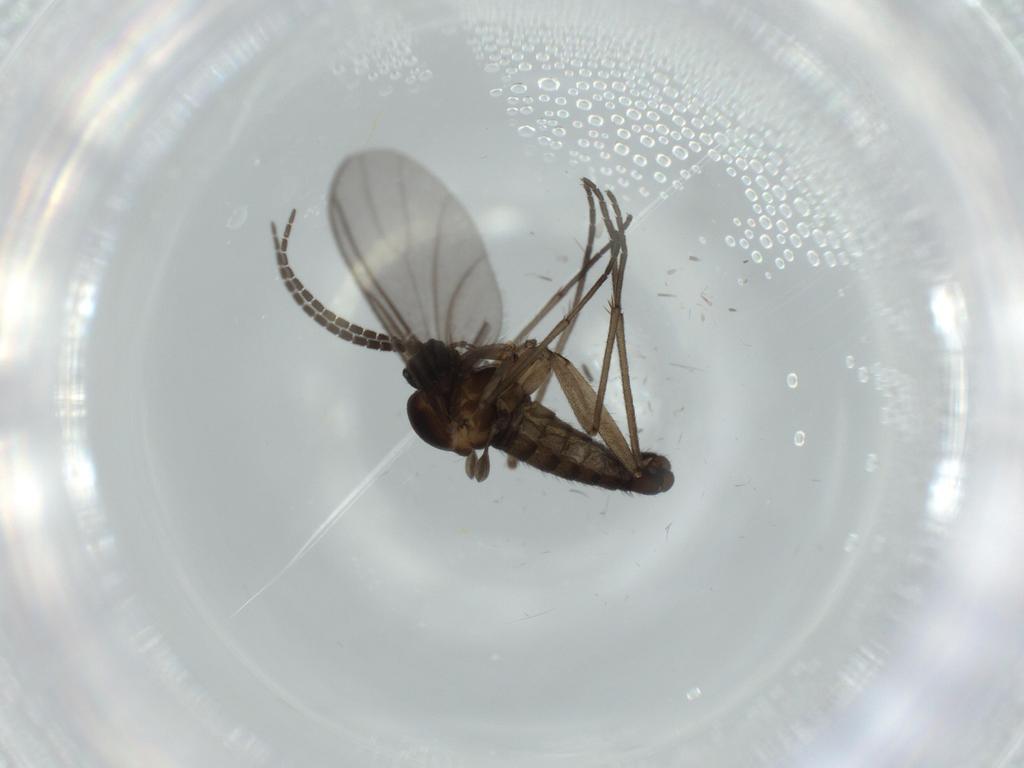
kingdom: Animalia
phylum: Arthropoda
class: Insecta
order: Diptera
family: Sciaridae
